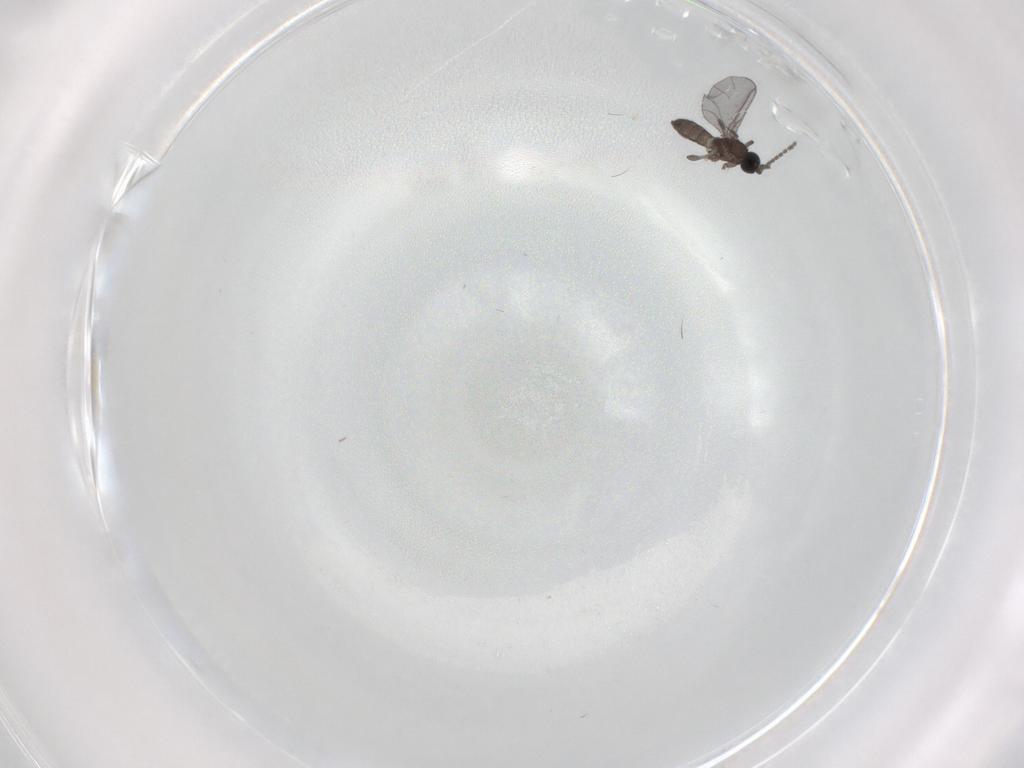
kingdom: Animalia
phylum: Arthropoda
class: Insecta
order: Diptera
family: Sciaridae
